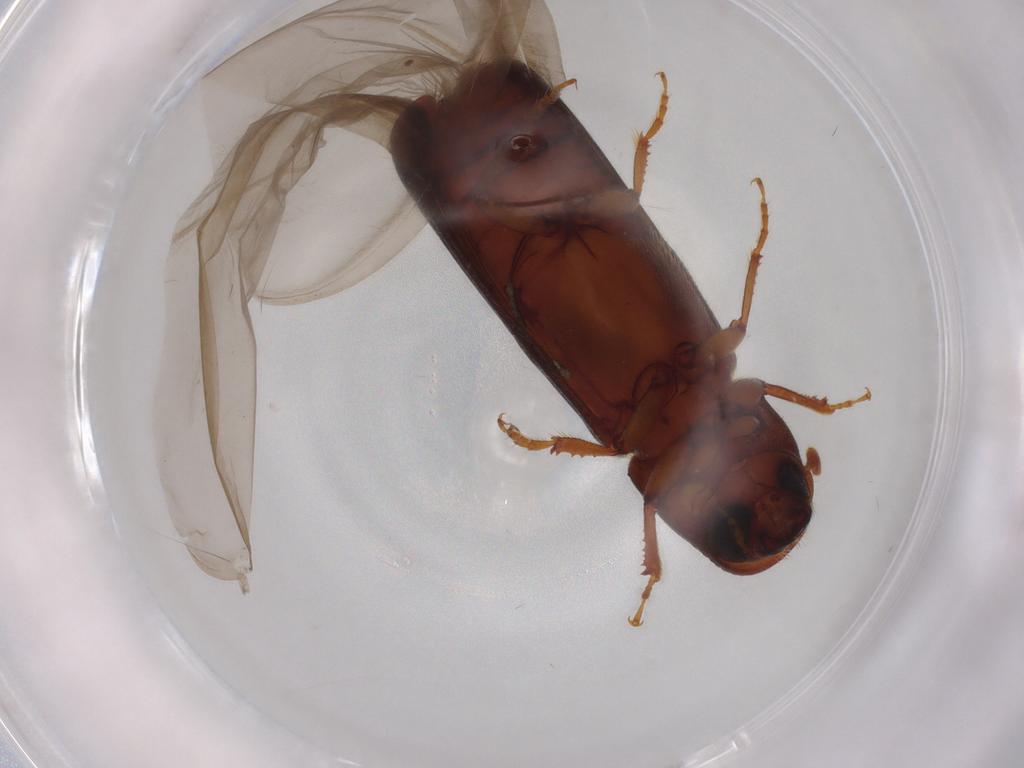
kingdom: Animalia
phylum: Arthropoda
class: Insecta
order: Coleoptera
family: Curculionidae
